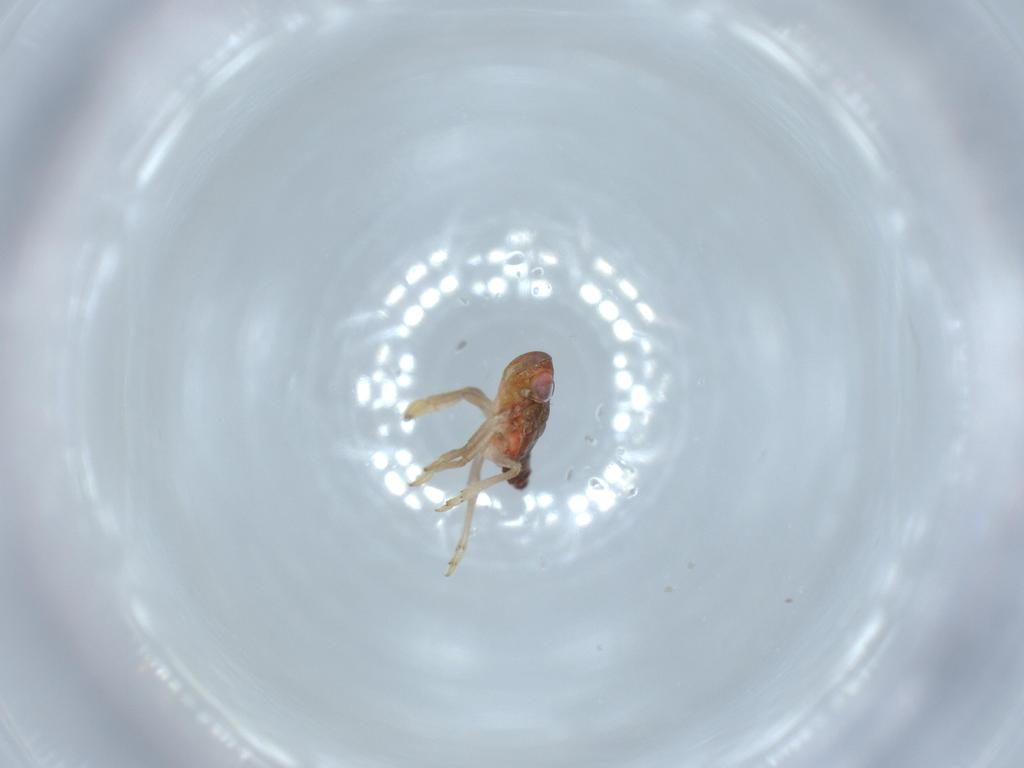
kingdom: Animalia
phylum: Arthropoda
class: Insecta
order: Hemiptera
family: Issidae
